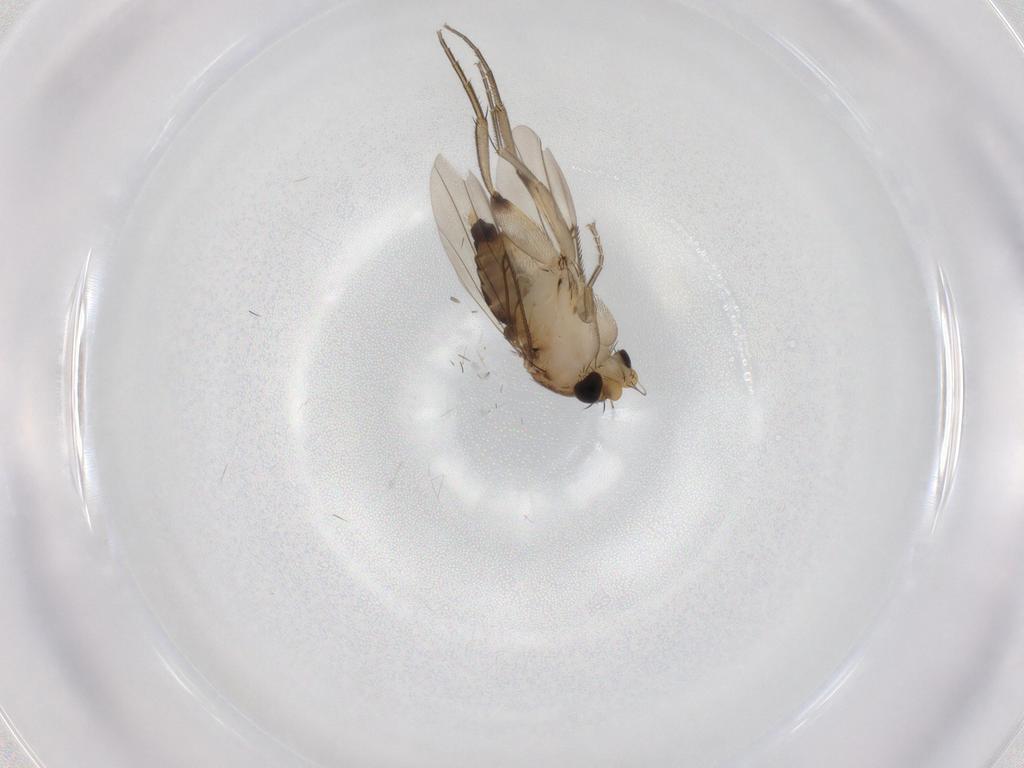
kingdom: Animalia
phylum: Arthropoda
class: Insecta
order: Diptera
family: Phoridae
